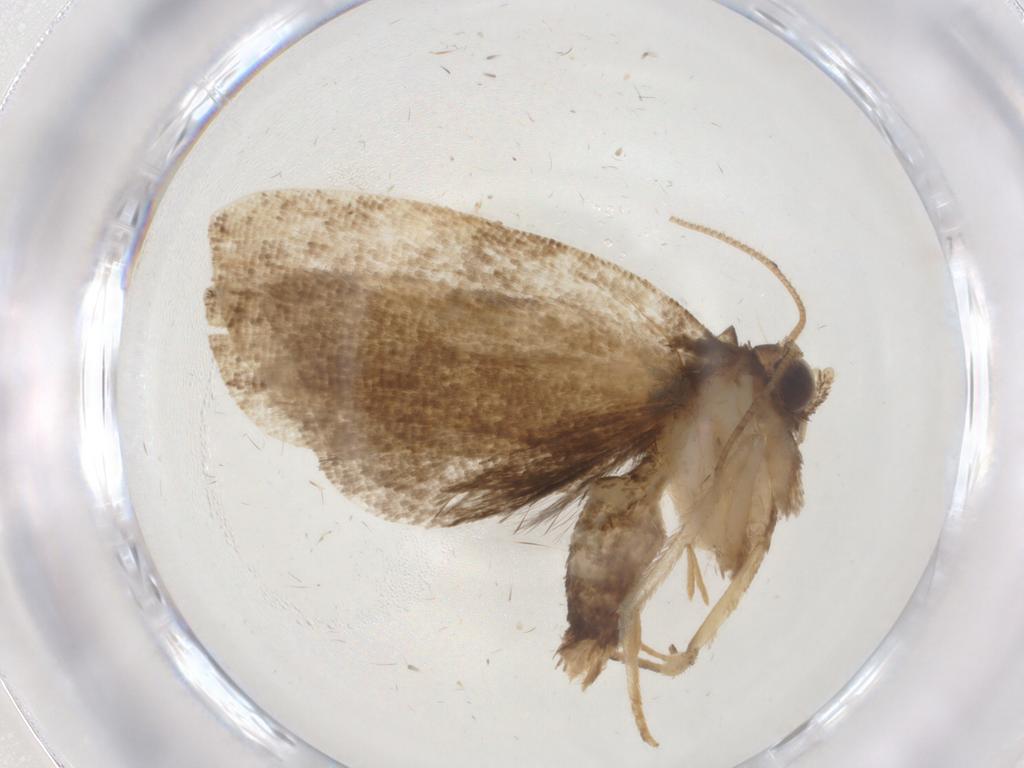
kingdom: Animalia
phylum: Arthropoda
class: Insecta
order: Lepidoptera
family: Tortricidae
